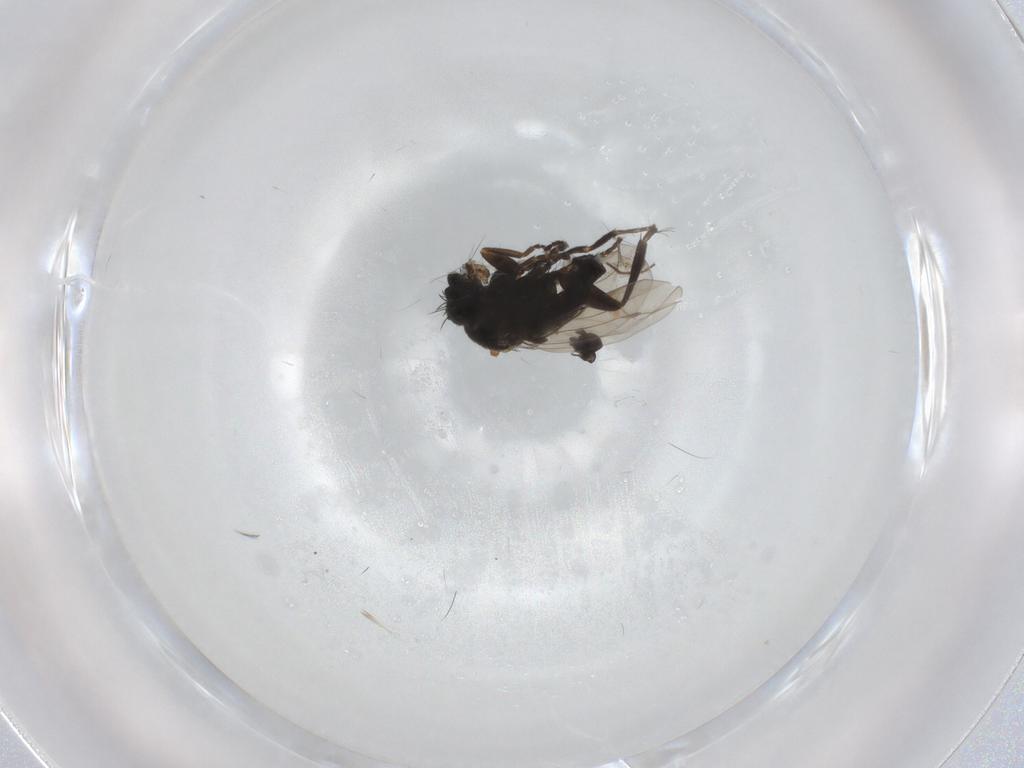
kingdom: Animalia
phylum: Arthropoda
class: Insecta
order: Diptera
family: Chironomidae
